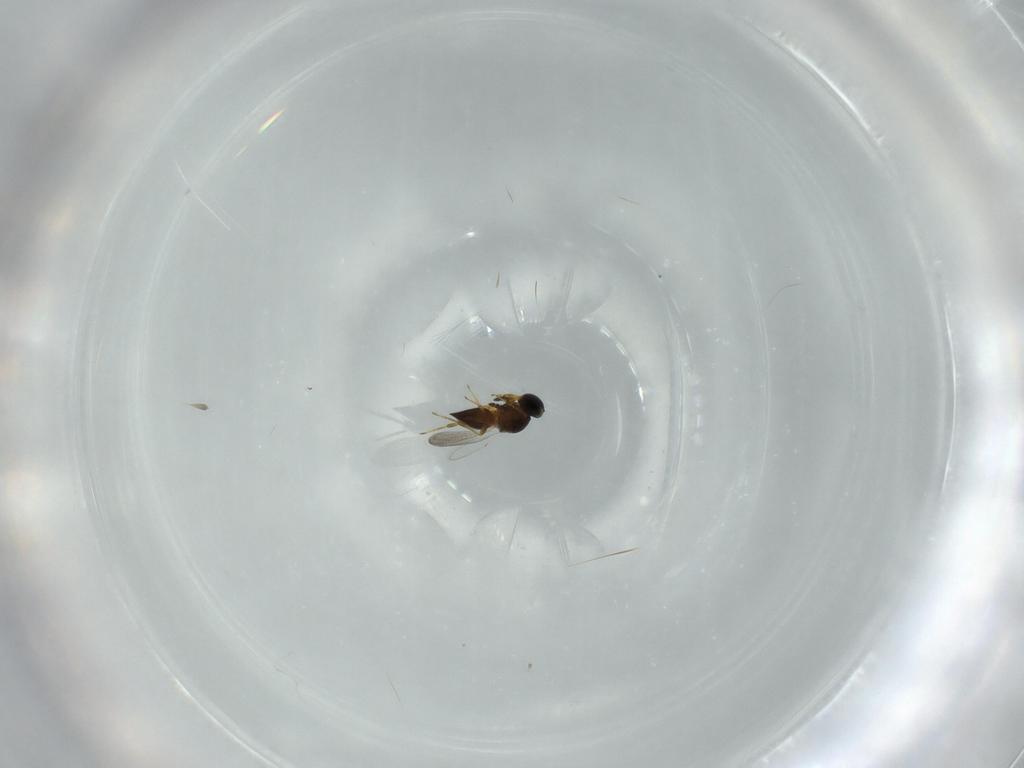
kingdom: Animalia
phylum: Arthropoda
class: Insecta
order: Hymenoptera
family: Platygastridae
